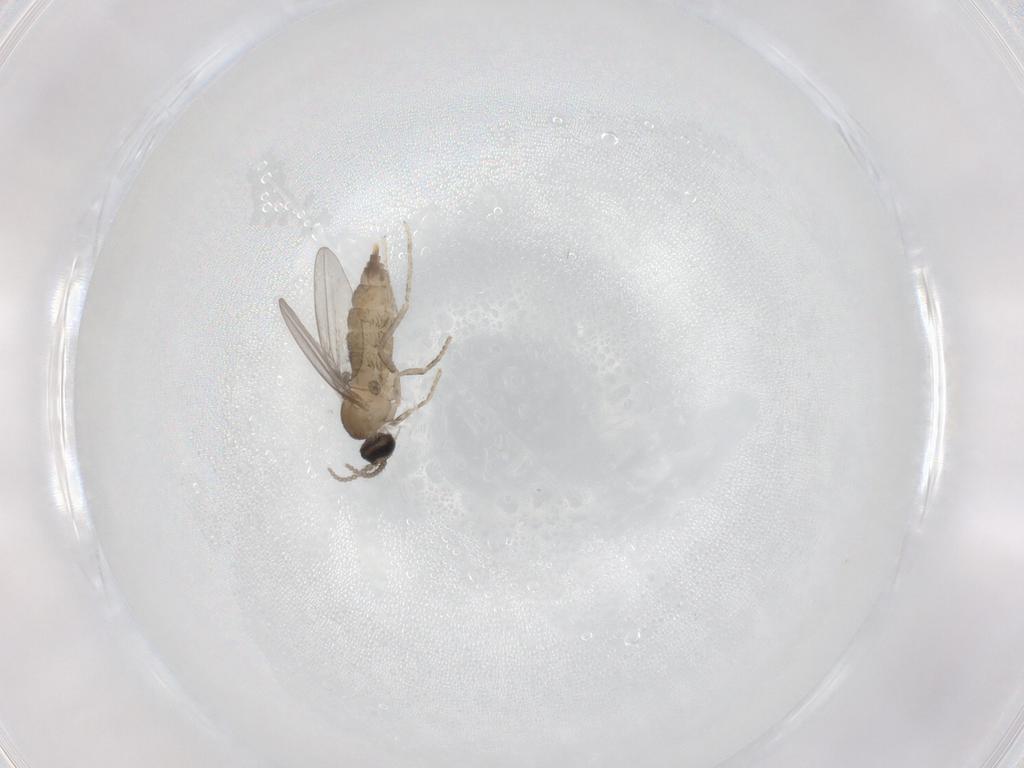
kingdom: Animalia
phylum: Arthropoda
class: Insecta
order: Diptera
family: Cecidomyiidae
